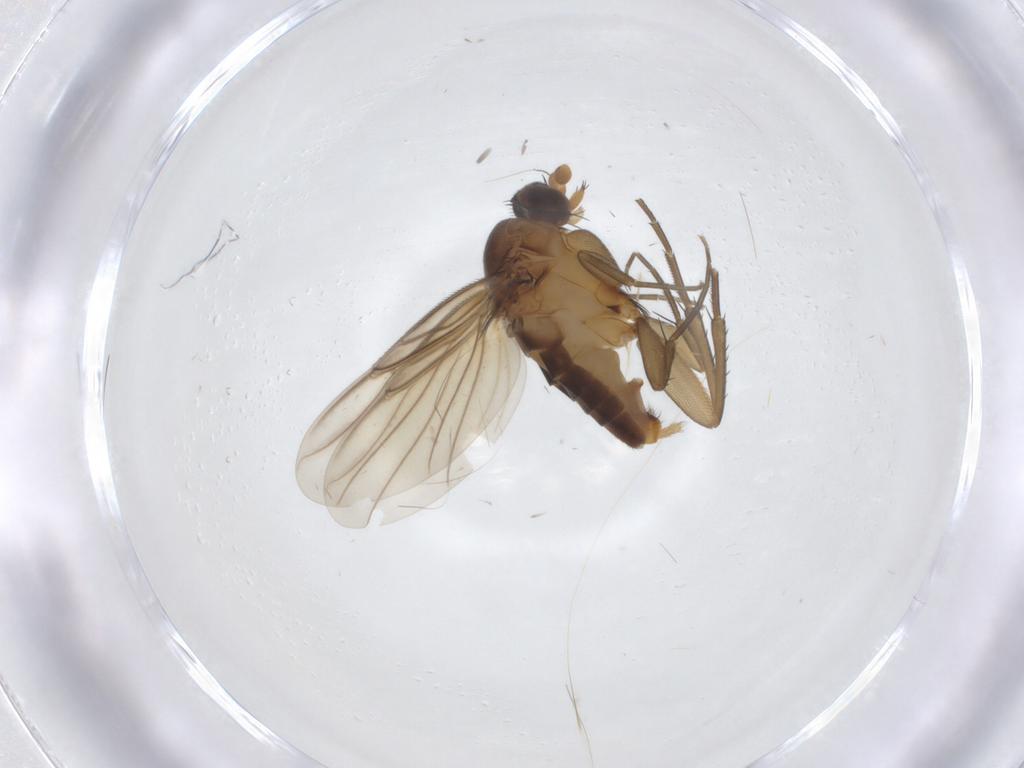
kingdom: Animalia
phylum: Arthropoda
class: Insecta
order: Diptera
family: Phoridae
